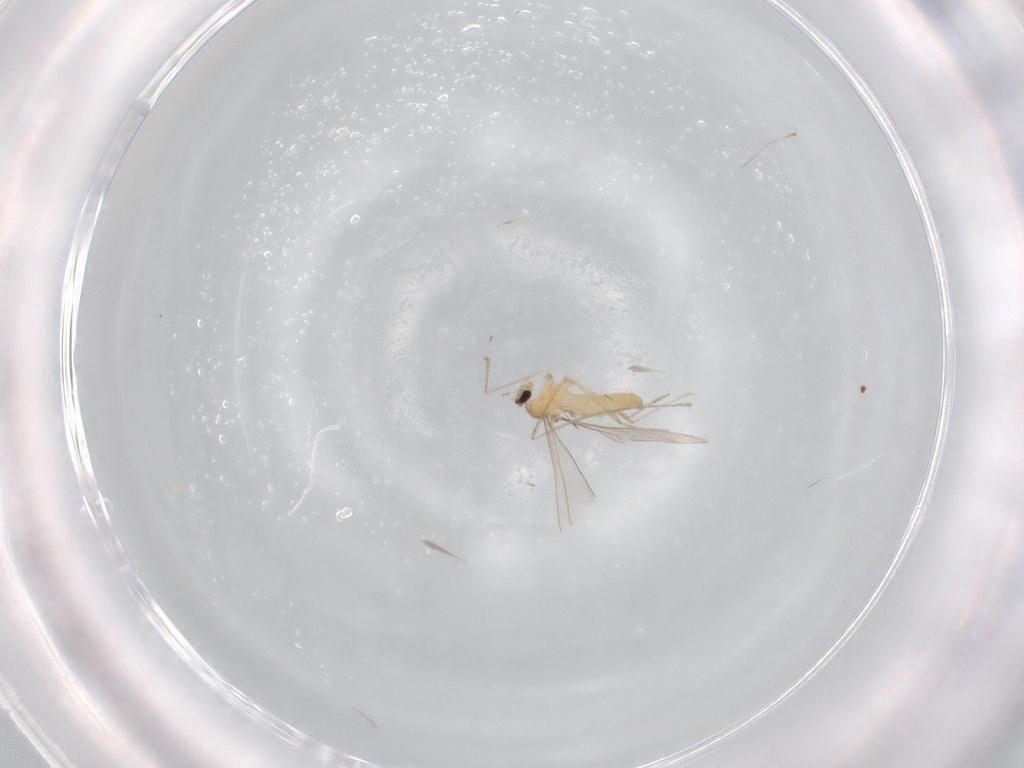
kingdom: Animalia
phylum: Arthropoda
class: Insecta
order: Diptera
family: Cecidomyiidae
